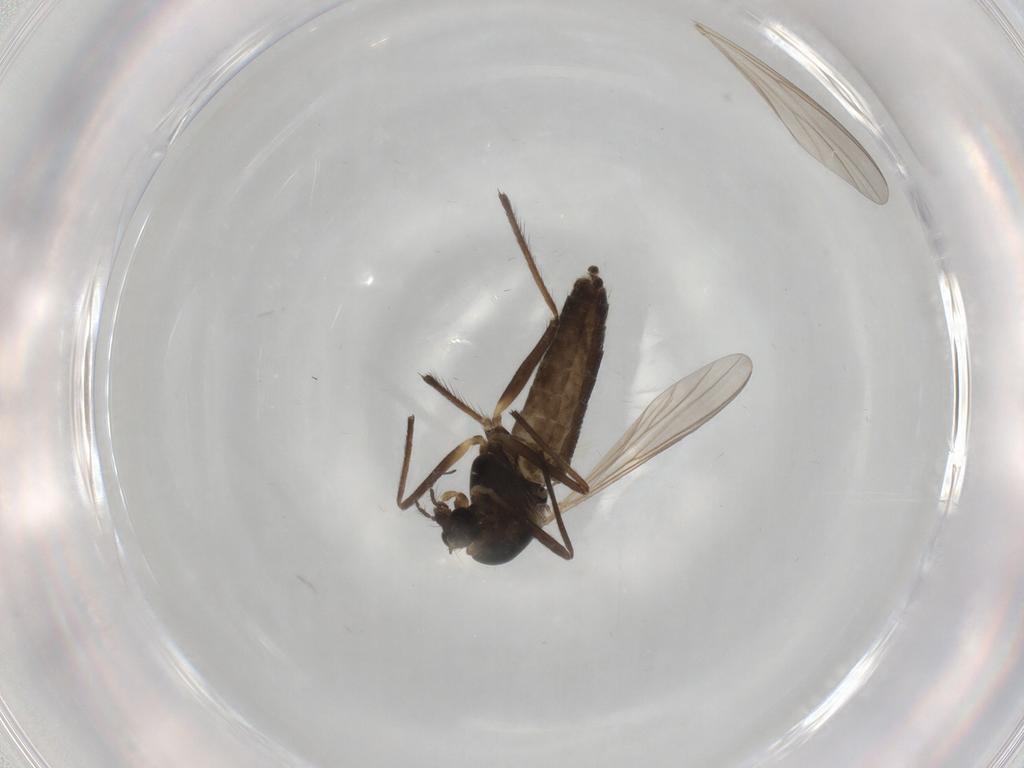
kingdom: Animalia
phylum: Arthropoda
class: Insecta
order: Diptera
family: Chironomidae
